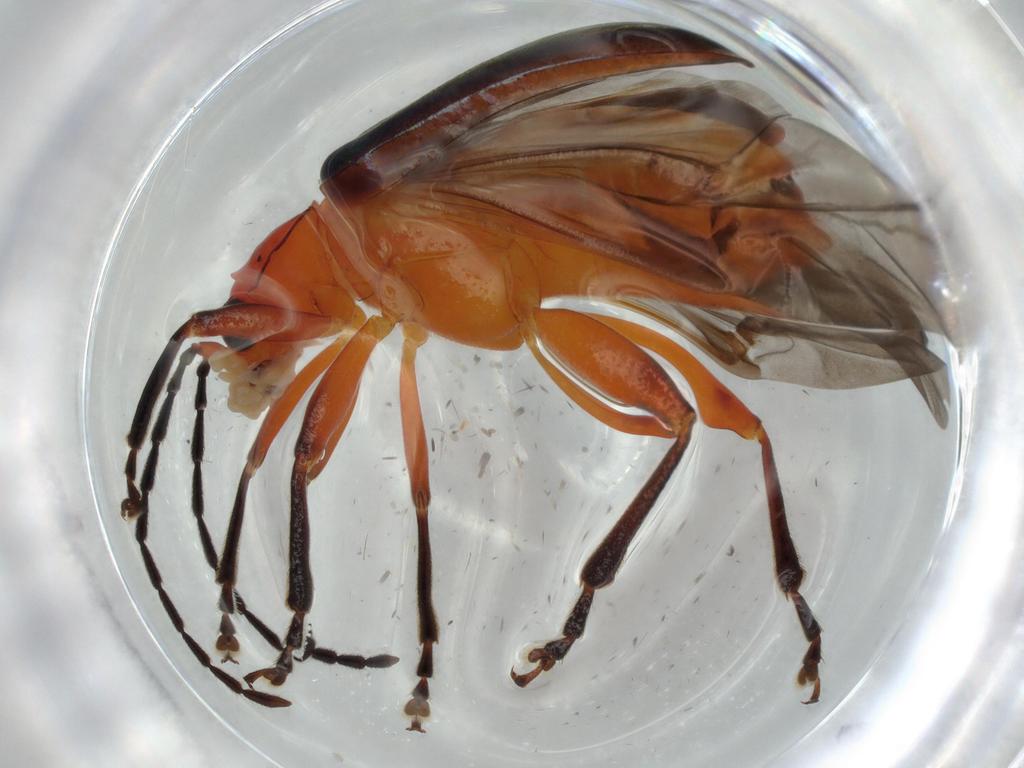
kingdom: Animalia
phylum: Arthropoda
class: Insecta
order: Coleoptera
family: Chrysomelidae
